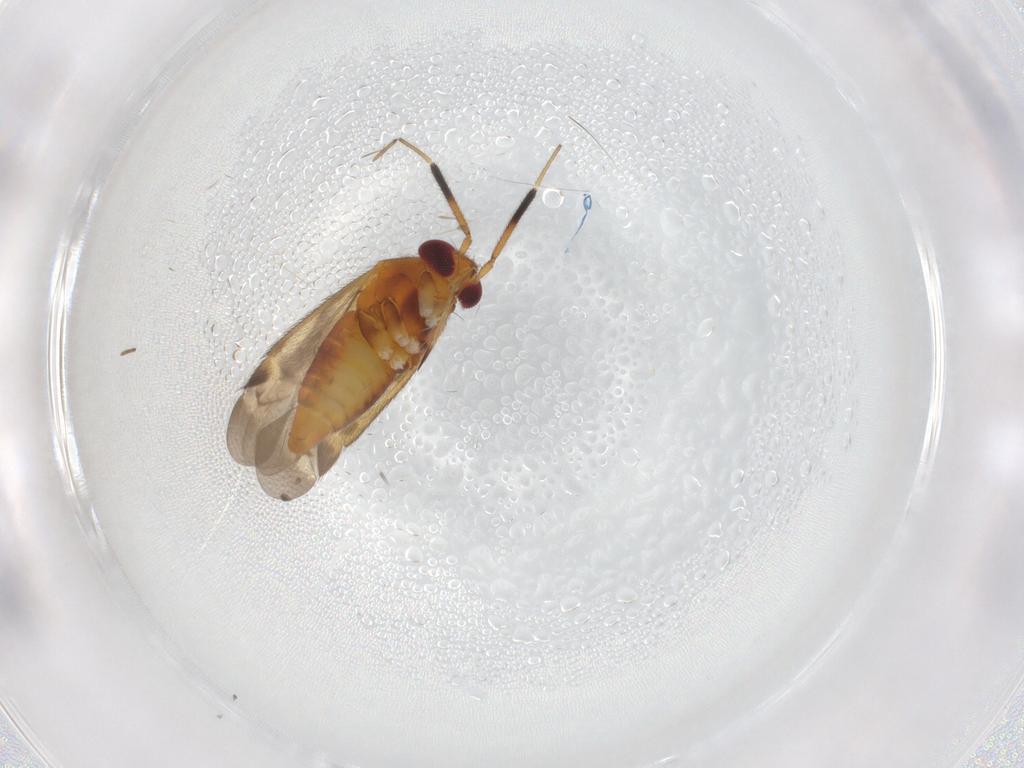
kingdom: Animalia
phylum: Arthropoda
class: Insecta
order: Hemiptera
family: Miridae
